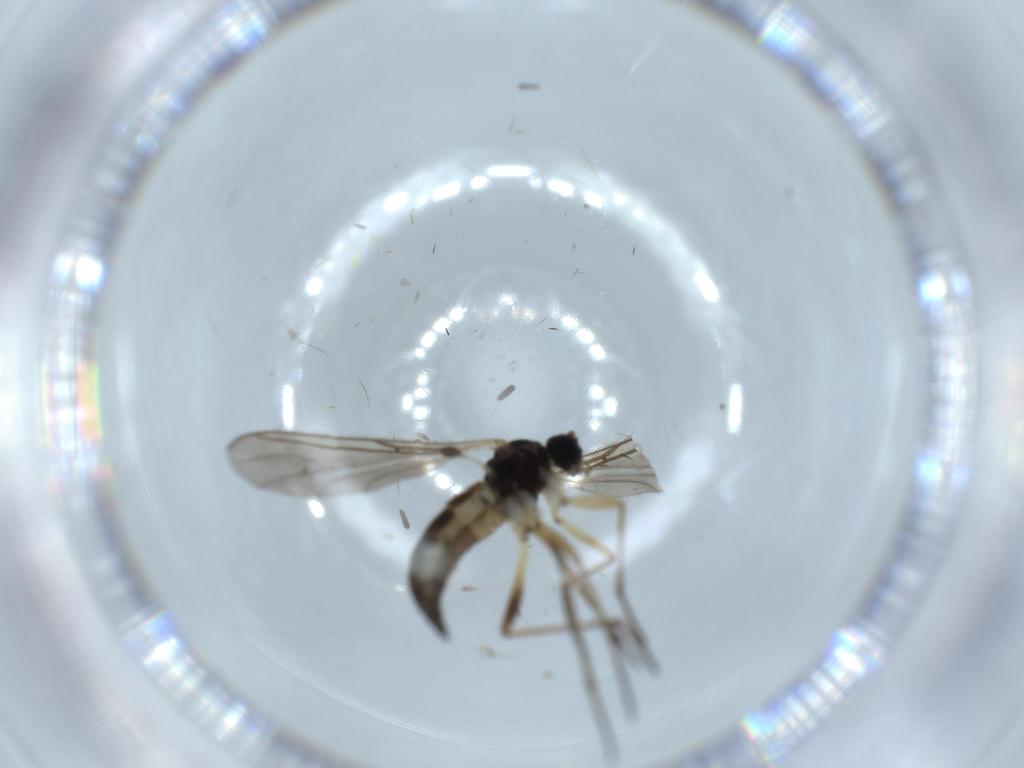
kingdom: Animalia
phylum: Arthropoda
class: Insecta
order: Diptera
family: Sciaridae
